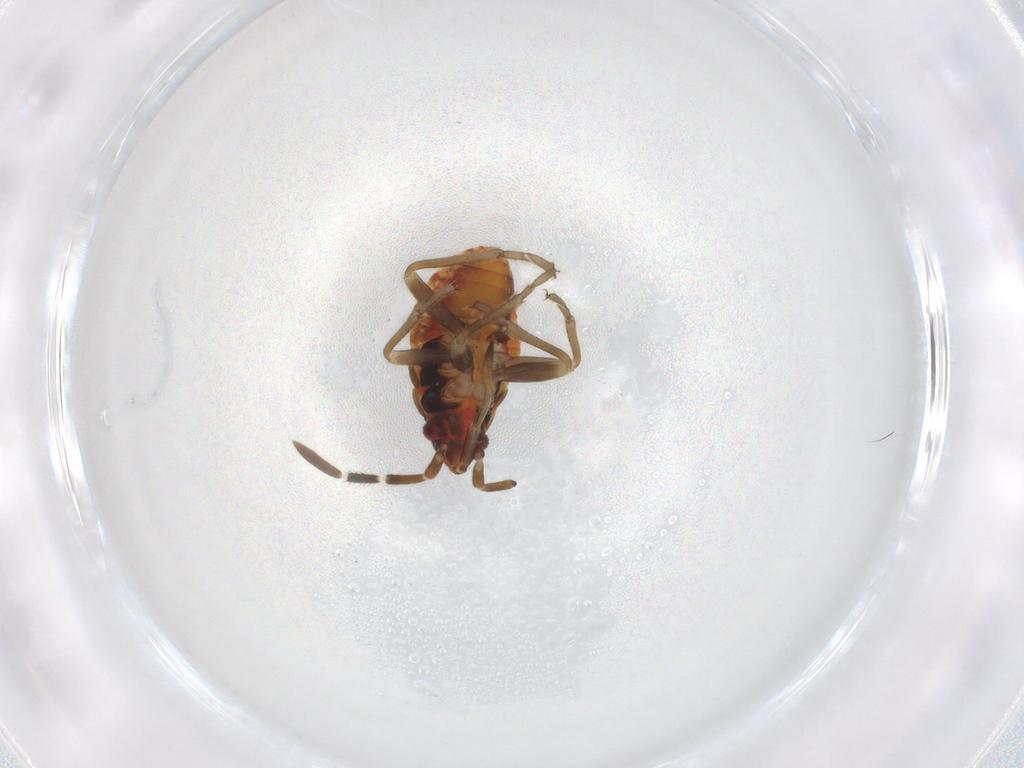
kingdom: Animalia
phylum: Arthropoda
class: Insecta
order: Hemiptera
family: Rhyparochromidae
